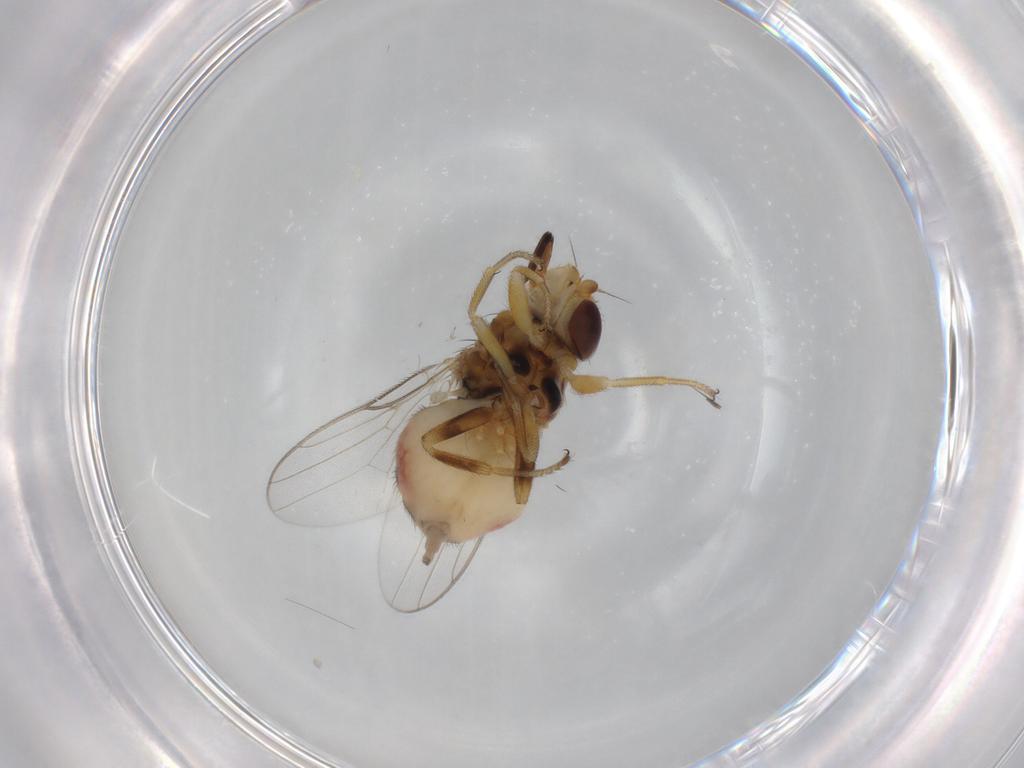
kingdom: Animalia
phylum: Arthropoda
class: Insecta
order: Diptera
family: Chloropidae
